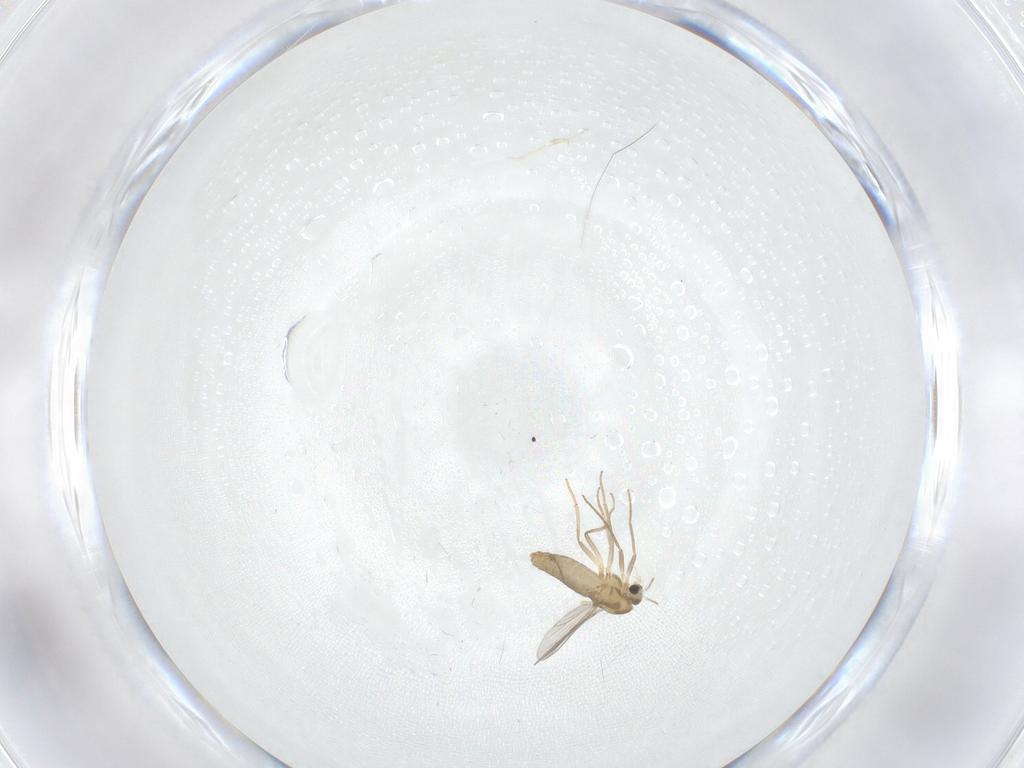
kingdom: Animalia
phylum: Arthropoda
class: Insecta
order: Diptera
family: Chironomidae
